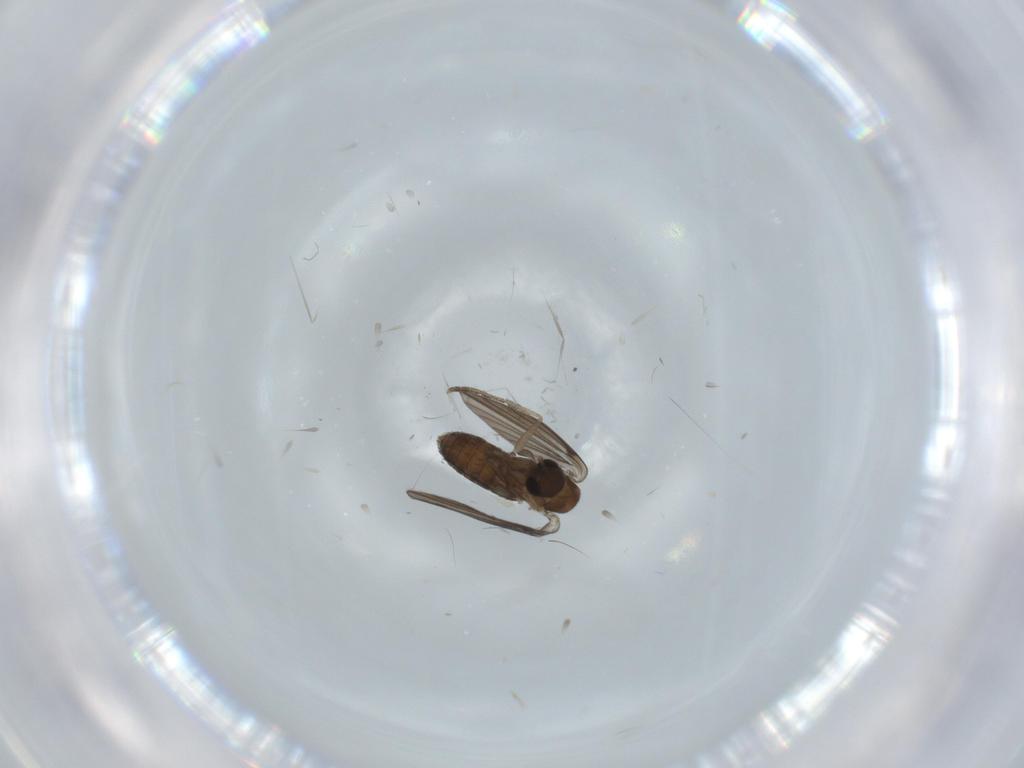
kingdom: Animalia
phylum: Arthropoda
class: Insecta
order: Diptera
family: Psychodidae
